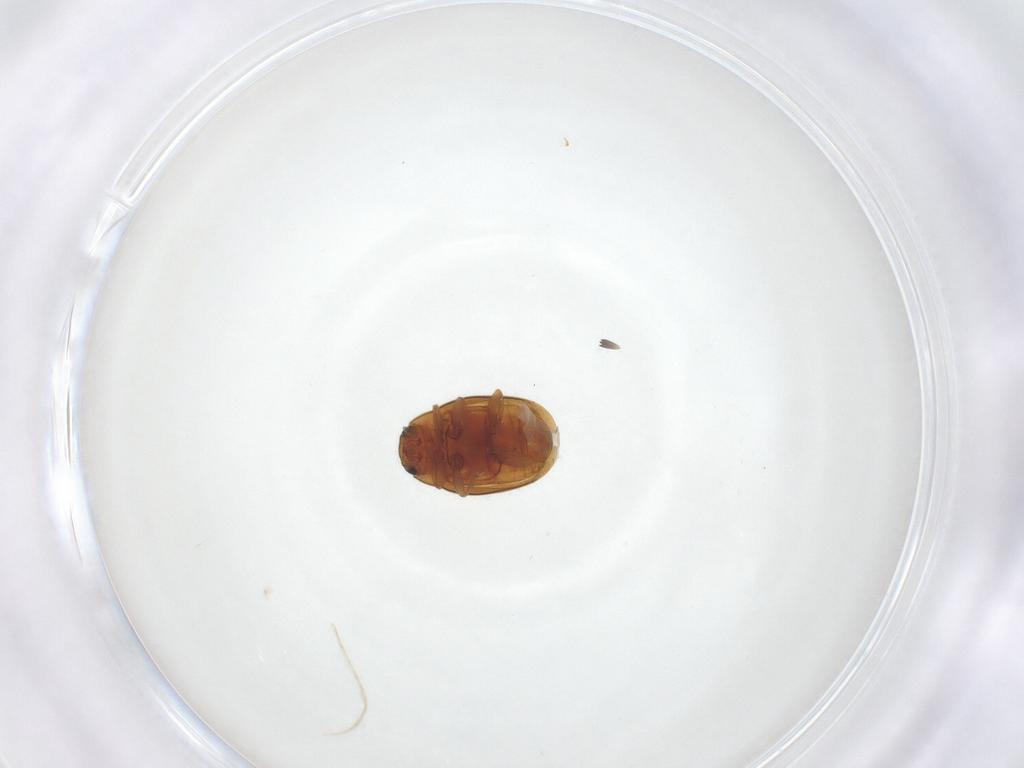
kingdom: Animalia
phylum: Arthropoda
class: Insecta
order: Coleoptera
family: Coccinellidae
